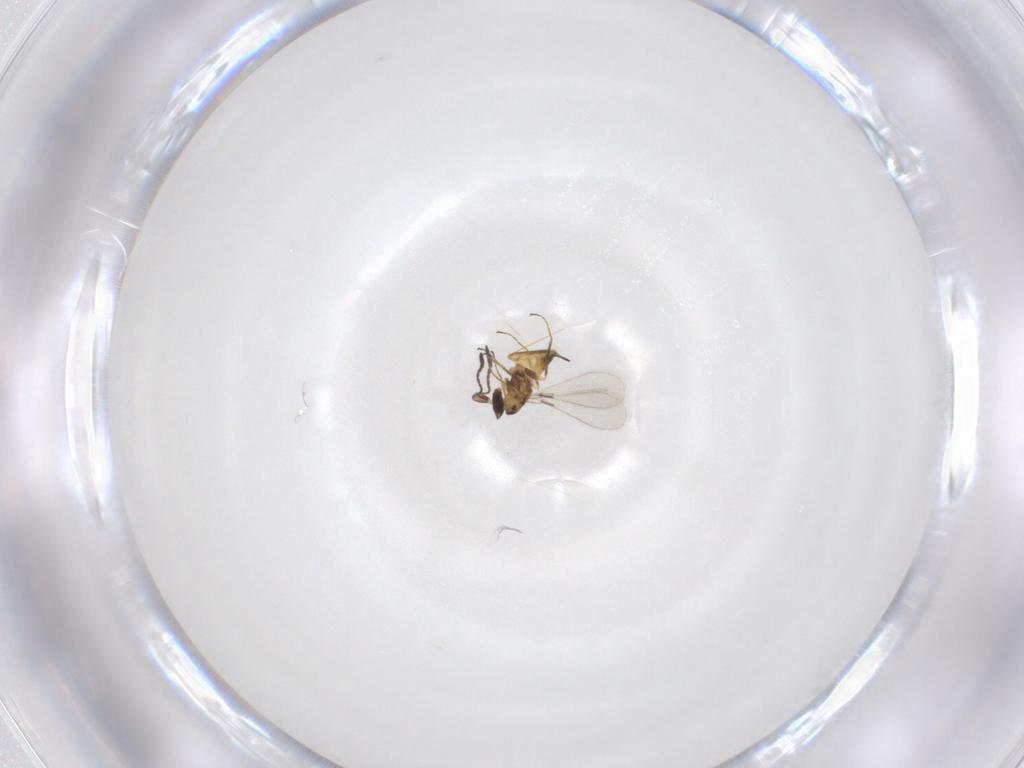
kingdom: Animalia
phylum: Arthropoda
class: Insecta
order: Hymenoptera
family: Mymaridae
